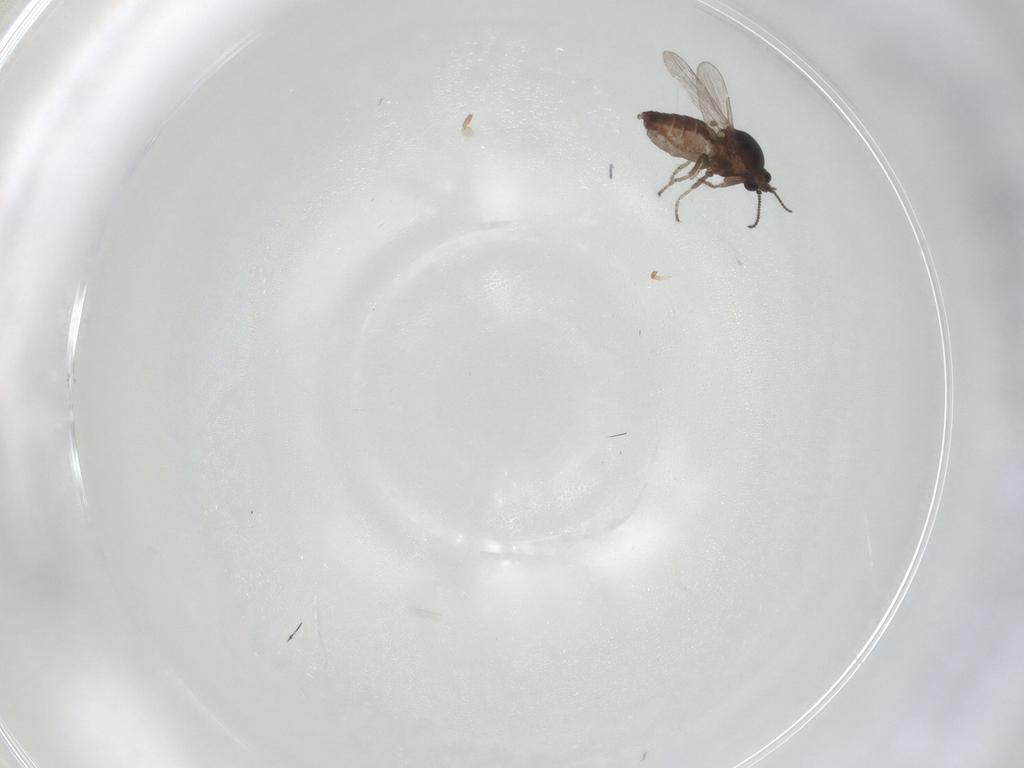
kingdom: Animalia
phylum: Arthropoda
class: Insecta
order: Diptera
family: Ceratopogonidae
